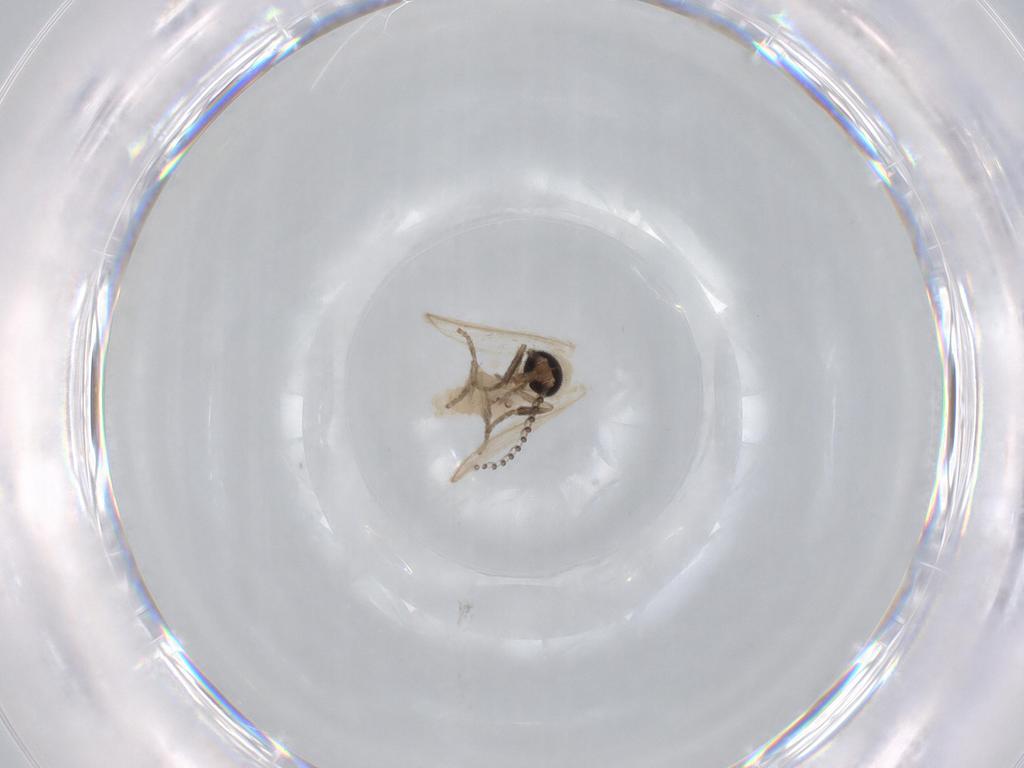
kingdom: Animalia
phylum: Arthropoda
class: Insecta
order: Diptera
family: Psychodidae
